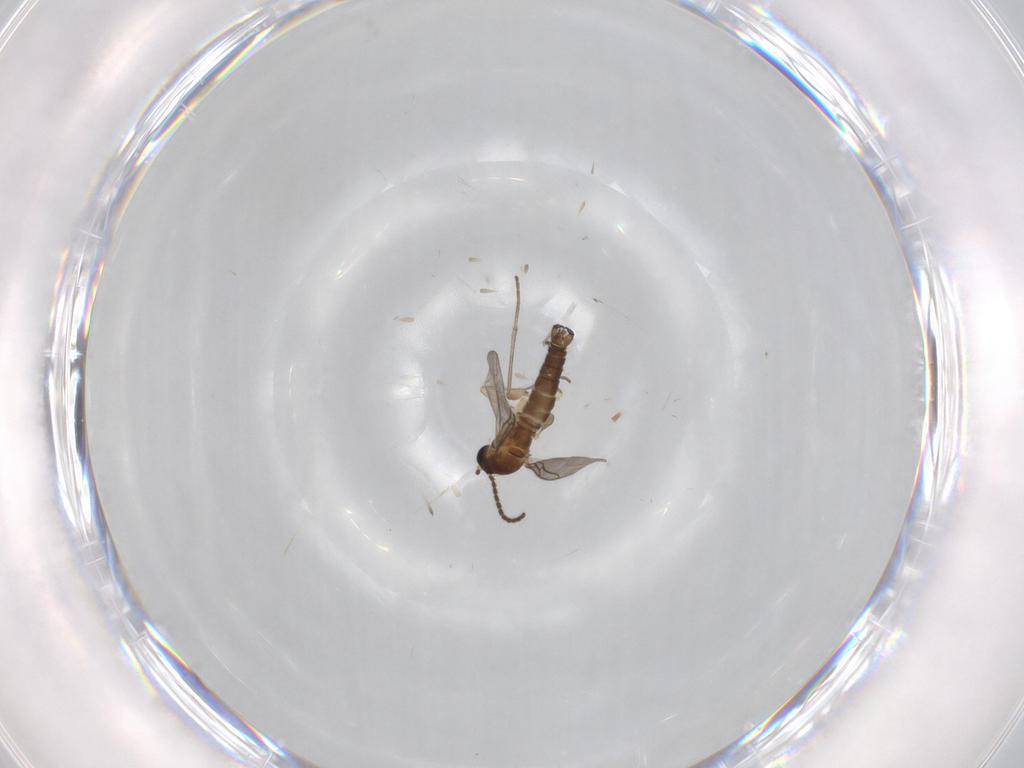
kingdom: Animalia
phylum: Arthropoda
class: Insecta
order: Diptera
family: Sciaridae
